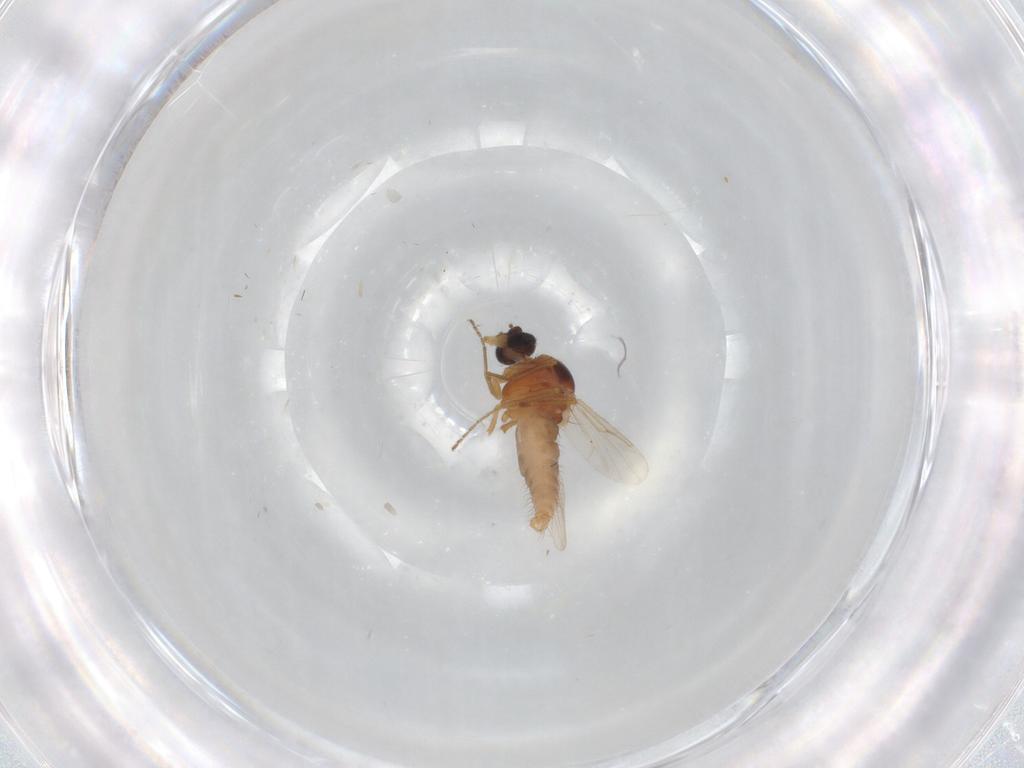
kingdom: Animalia
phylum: Arthropoda
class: Insecta
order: Diptera
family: Ceratopogonidae
